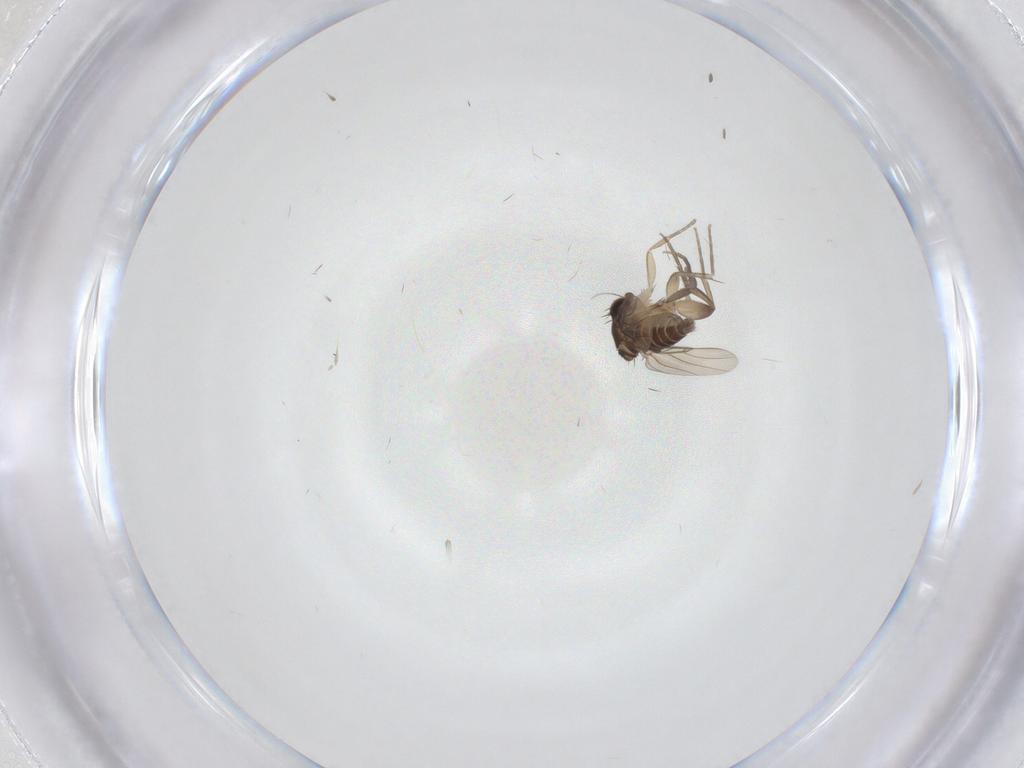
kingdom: Animalia
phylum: Arthropoda
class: Insecta
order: Diptera
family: Phoridae
